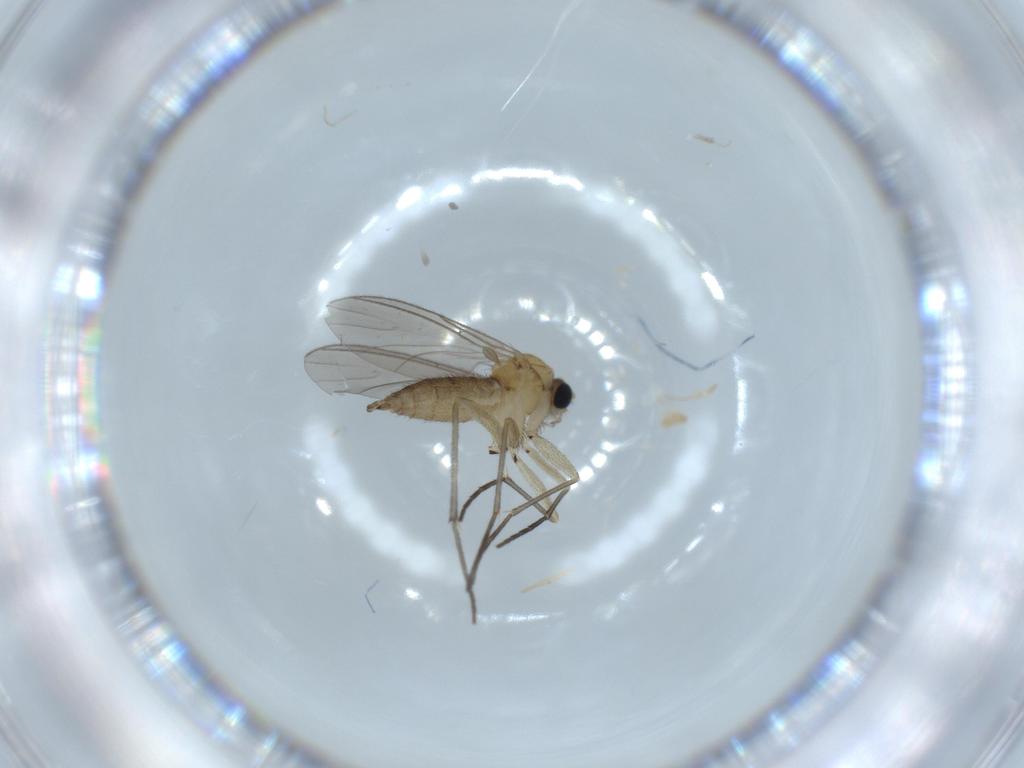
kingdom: Animalia
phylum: Arthropoda
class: Insecta
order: Diptera
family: Sciaridae
